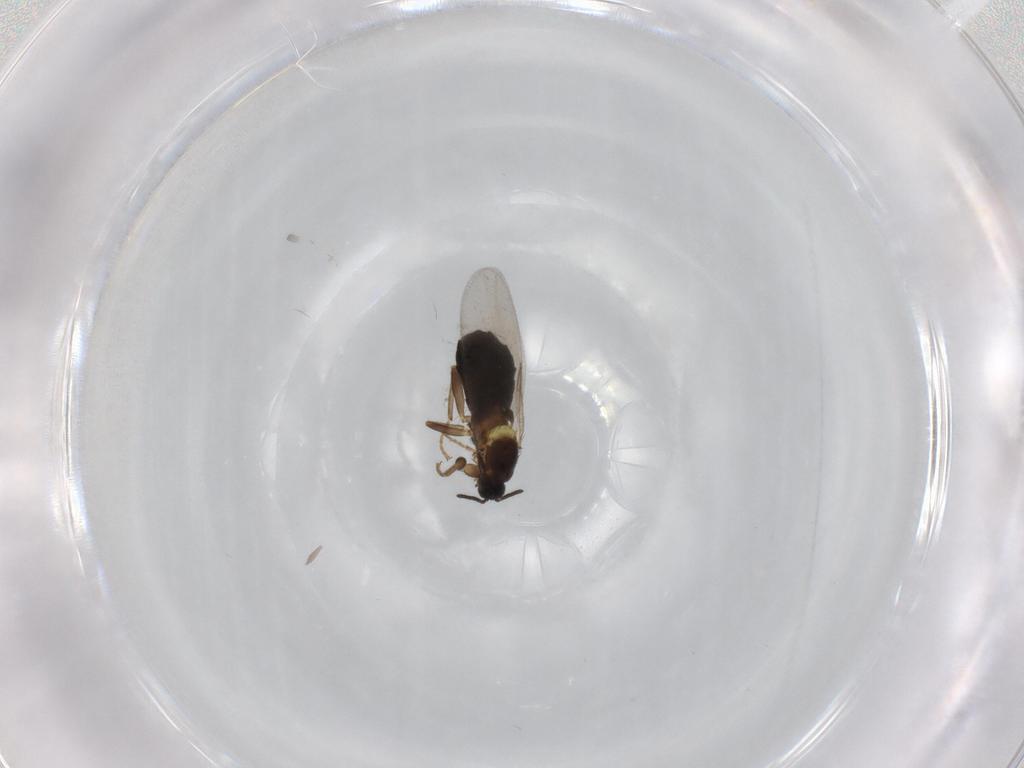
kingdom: Animalia
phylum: Arthropoda
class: Insecta
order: Diptera
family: Scatopsidae
